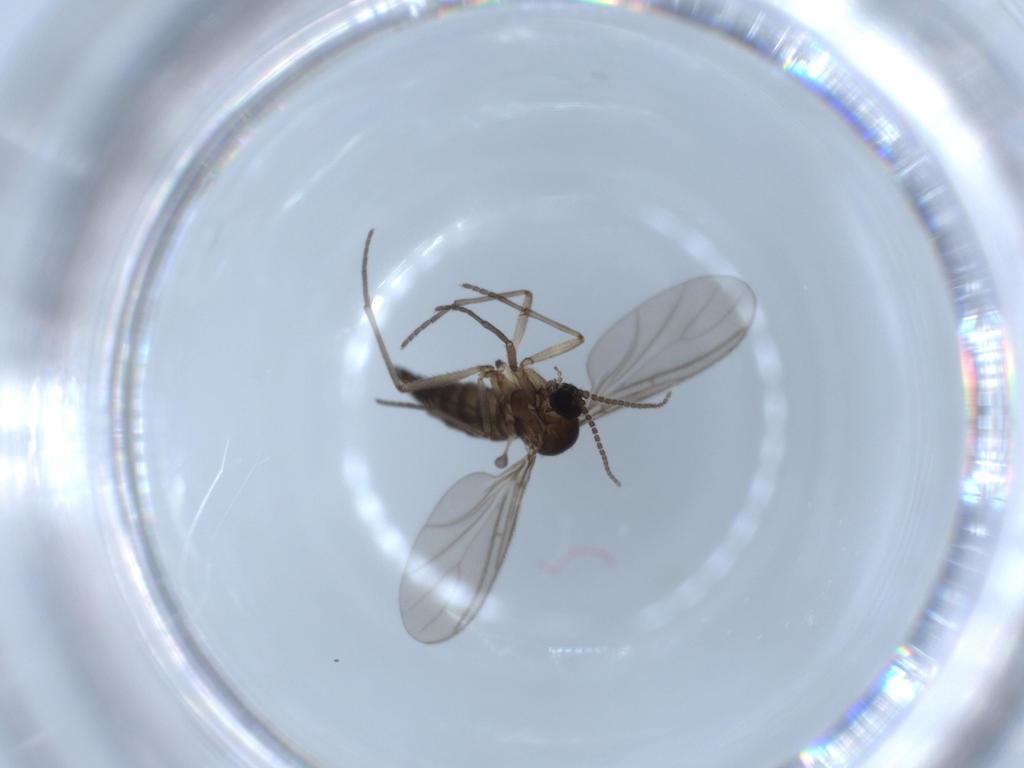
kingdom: Animalia
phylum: Arthropoda
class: Insecta
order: Diptera
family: Sciaridae
